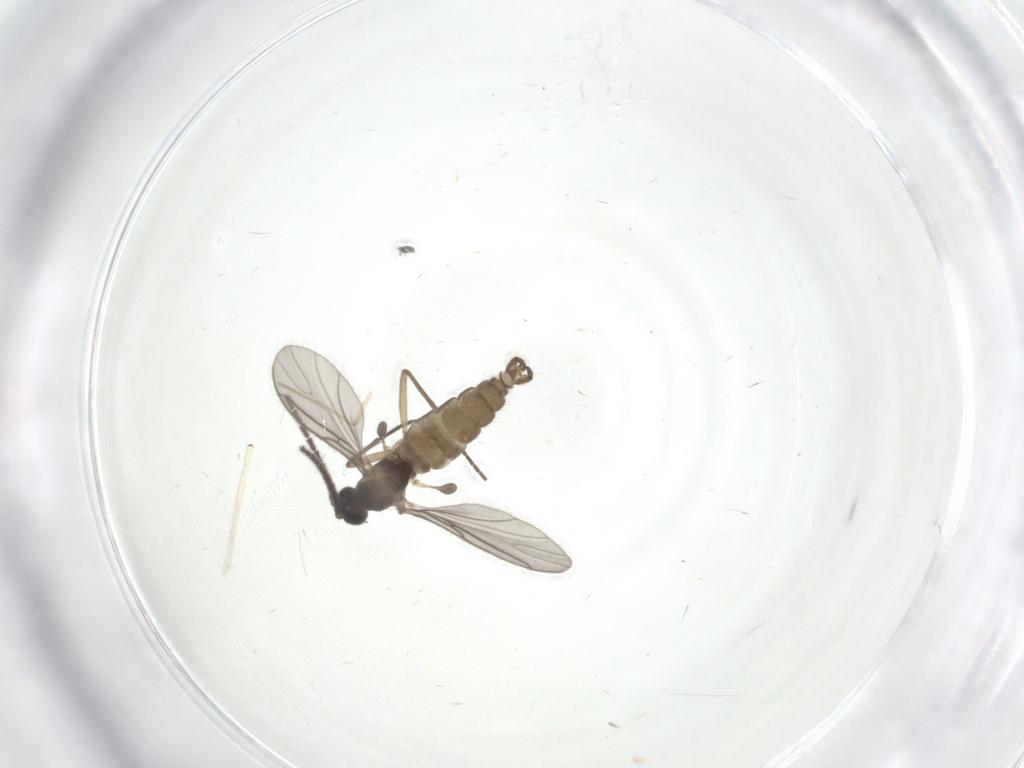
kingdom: Animalia
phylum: Arthropoda
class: Insecta
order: Diptera
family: Psychodidae
